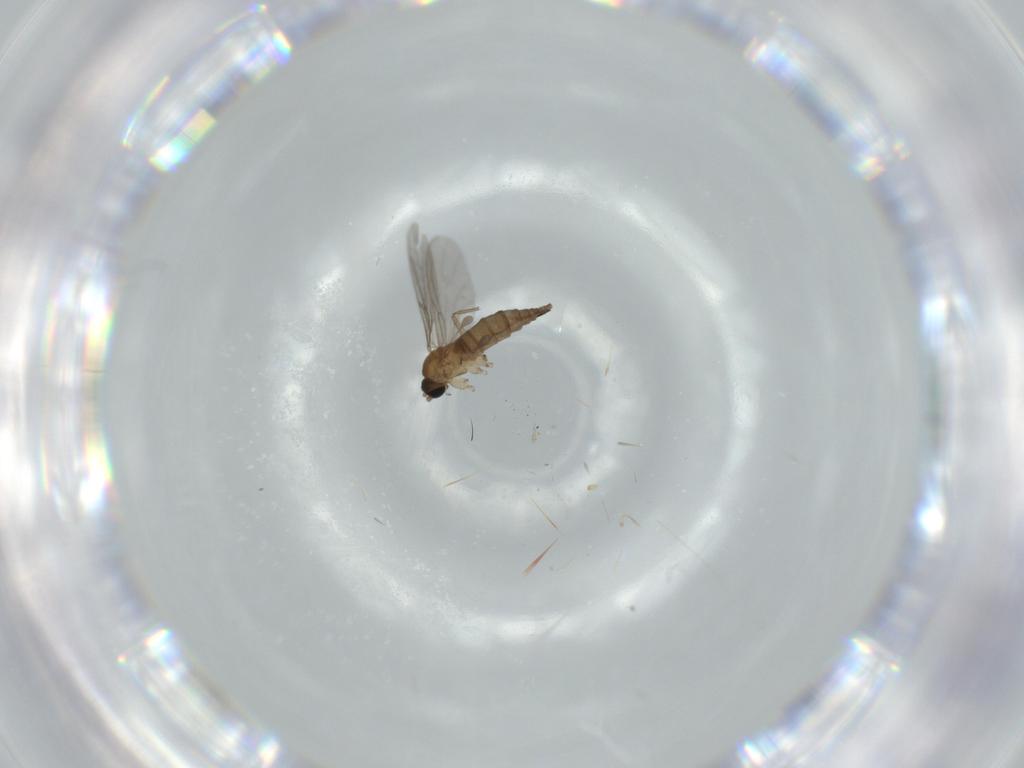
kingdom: Animalia
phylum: Arthropoda
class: Insecta
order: Diptera
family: Sciaridae
